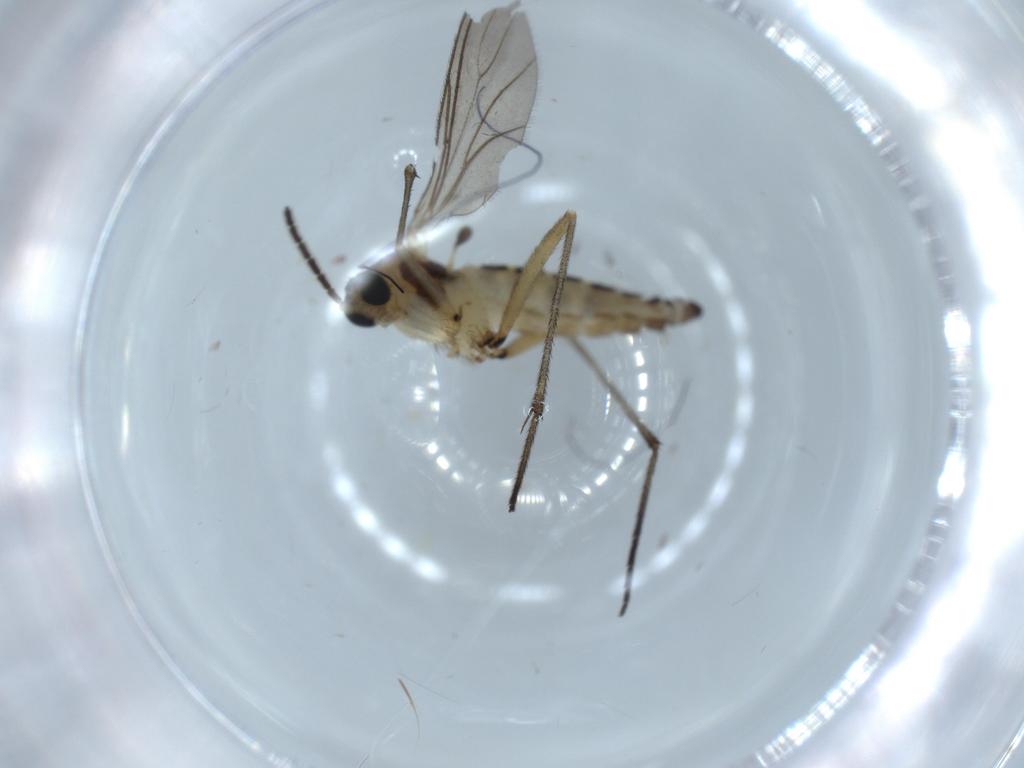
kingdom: Animalia
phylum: Arthropoda
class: Insecta
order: Diptera
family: Sciaridae
